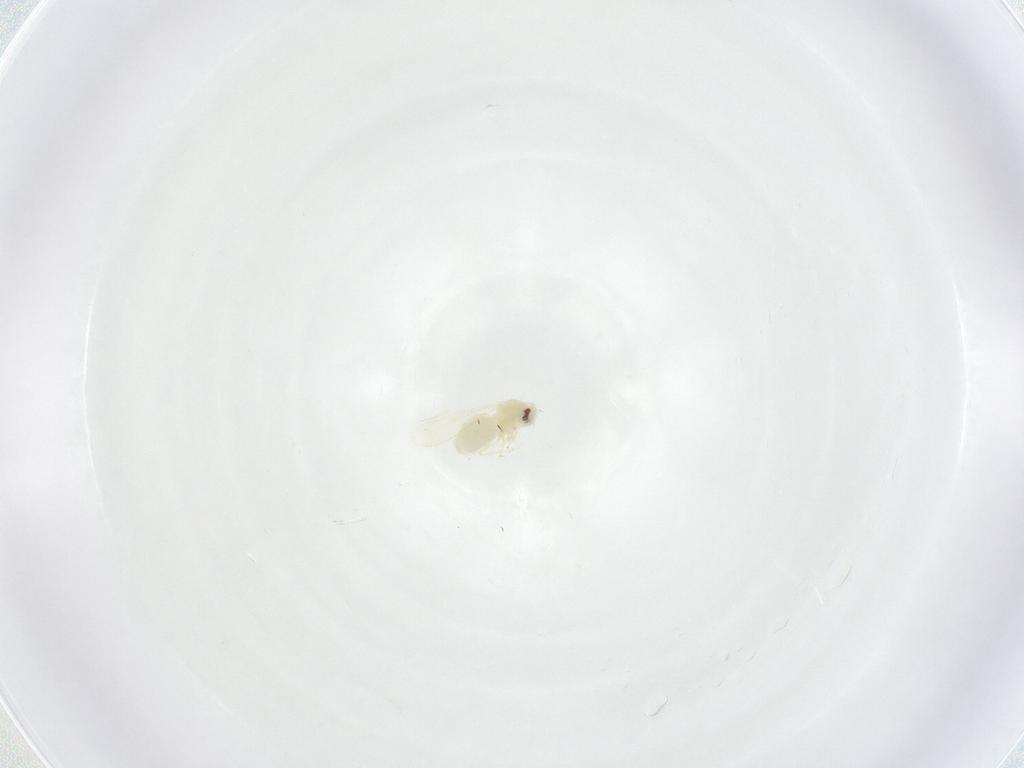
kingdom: Animalia
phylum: Arthropoda
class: Insecta
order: Hemiptera
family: Aleyrodidae
